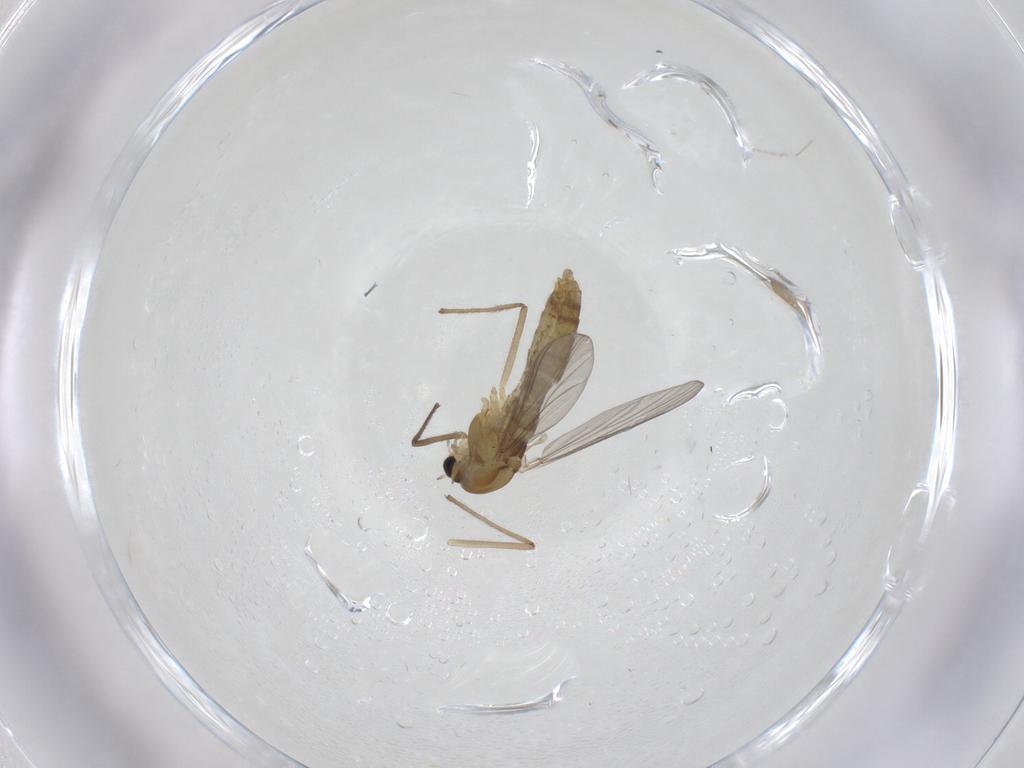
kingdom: Animalia
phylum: Arthropoda
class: Insecta
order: Diptera
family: Chironomidae
